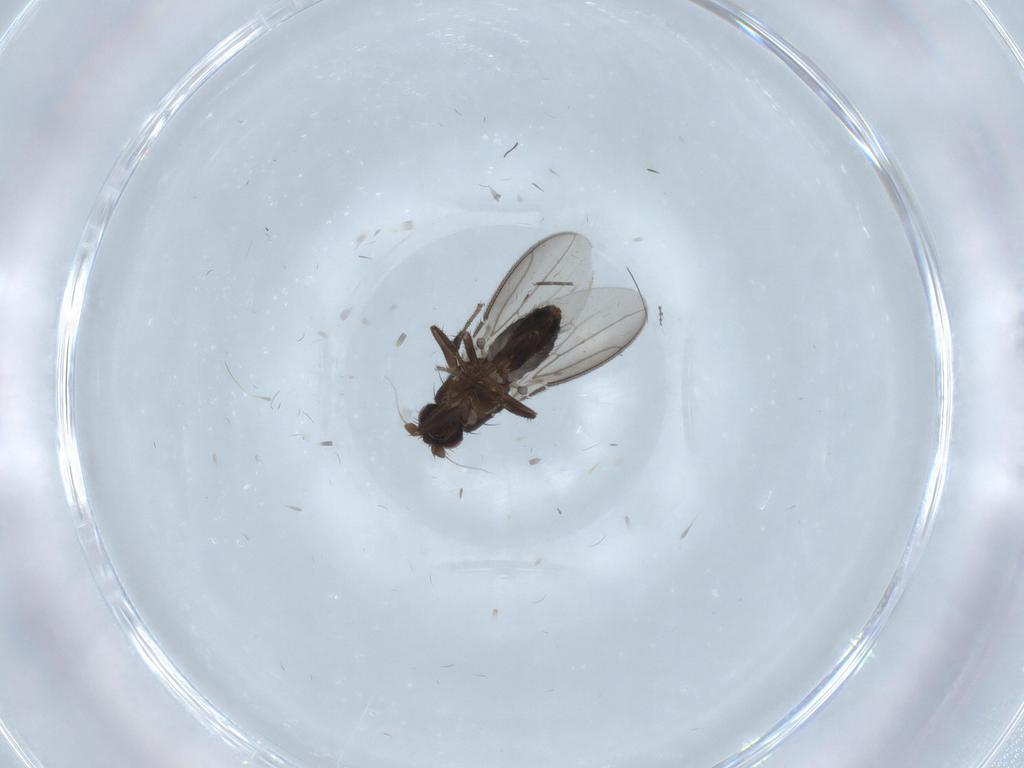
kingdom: Animalia
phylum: Arthropoda
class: Insecta
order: Diptera
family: Sphaeroceridae
